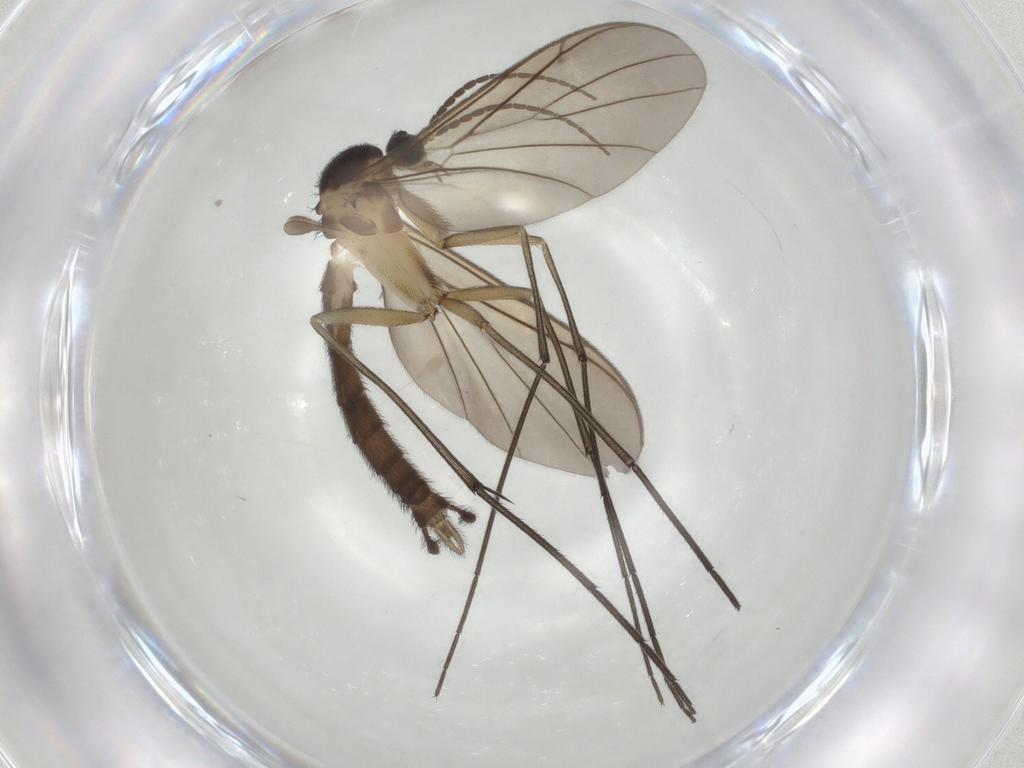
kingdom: Animalia
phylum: Arthropoda
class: Insecta
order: Diptera
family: Keroplatidae
